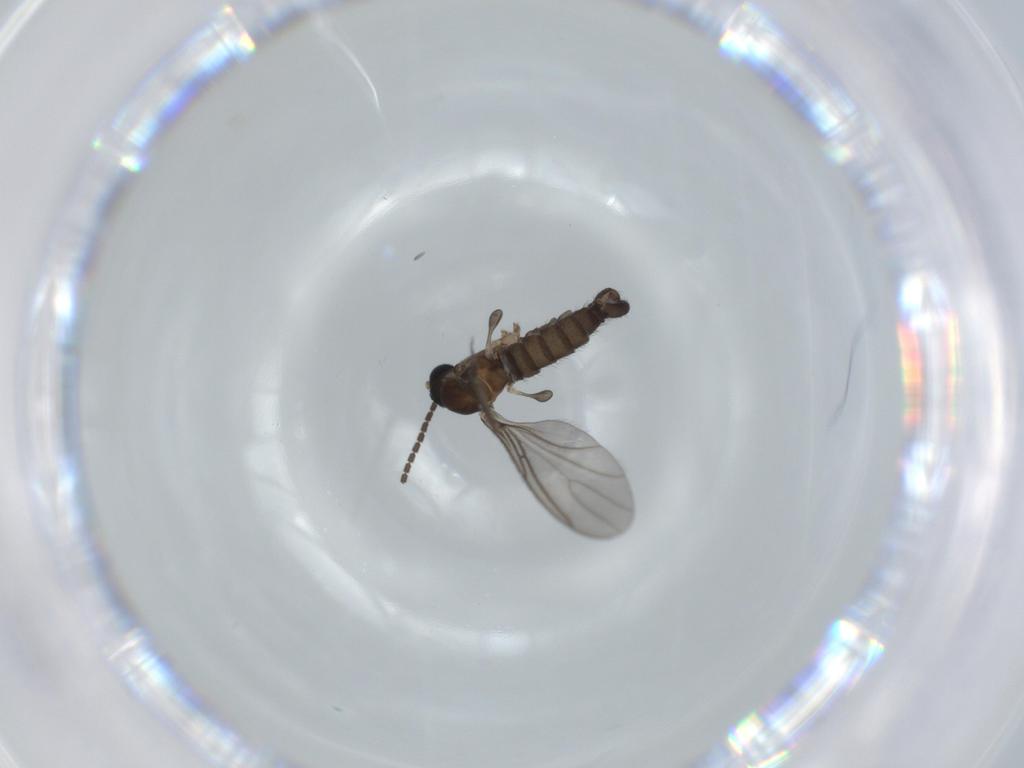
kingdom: Animalia
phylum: Arthropoda
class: Insecta
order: Diptera
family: Sciaridae
